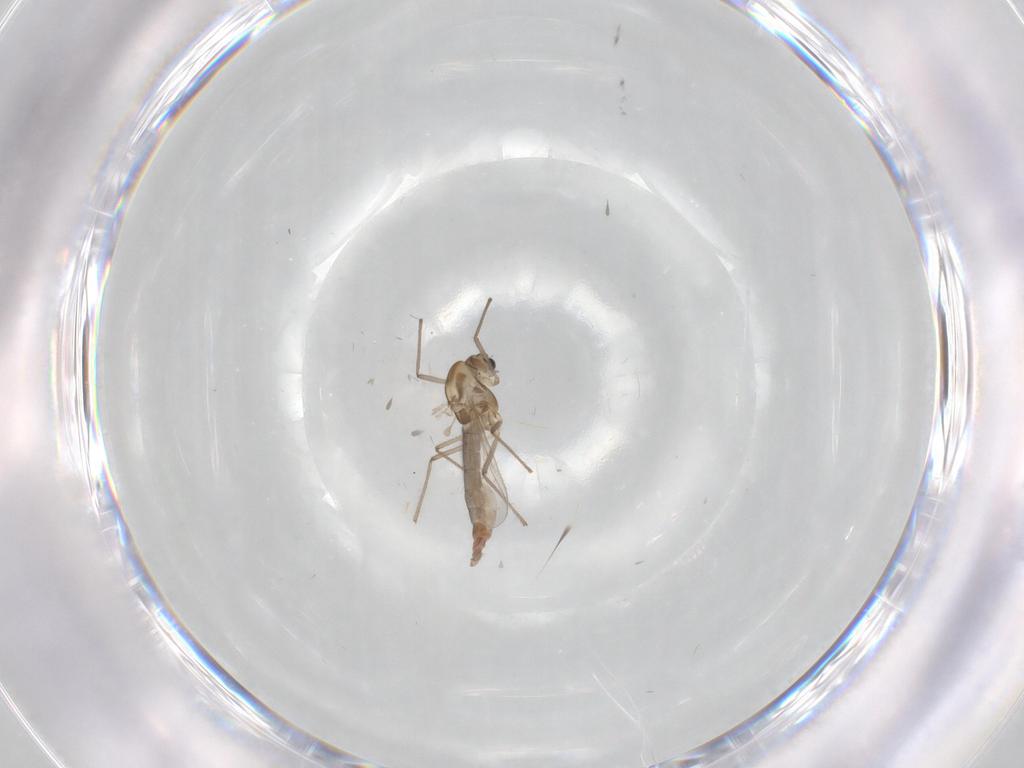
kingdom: Animalia
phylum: Arthropoda
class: Insecta
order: Diptera
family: Chironomidae
